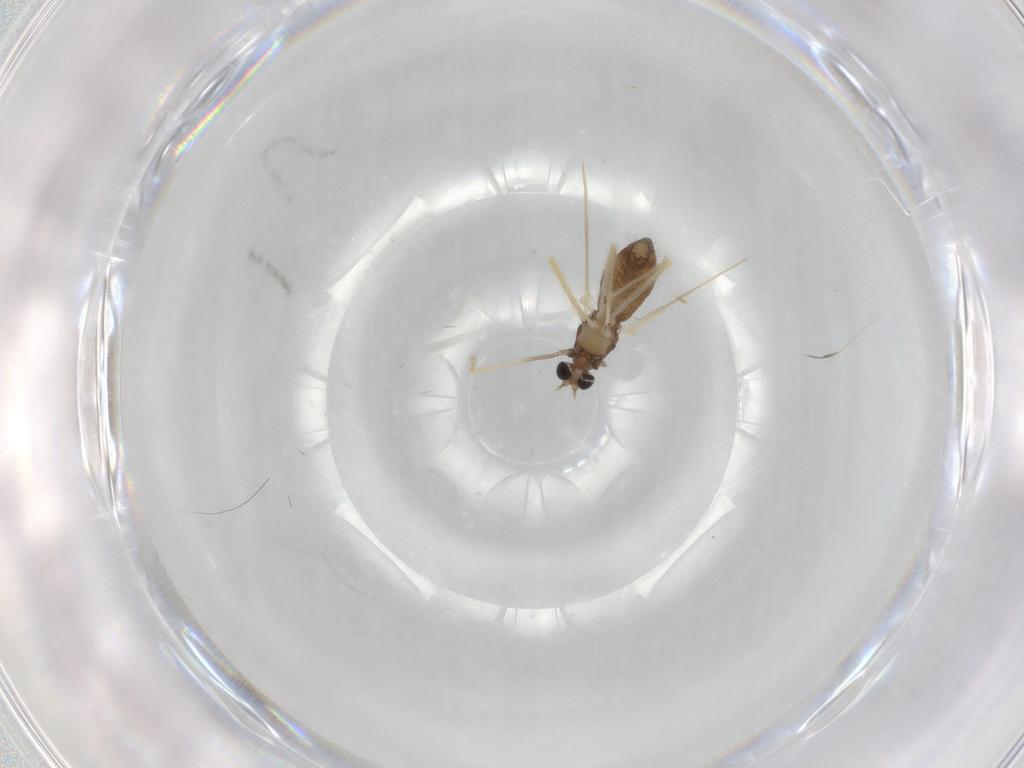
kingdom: Animalia
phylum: Arthropoda
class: Insecta
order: Diptera
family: Chironomidae
